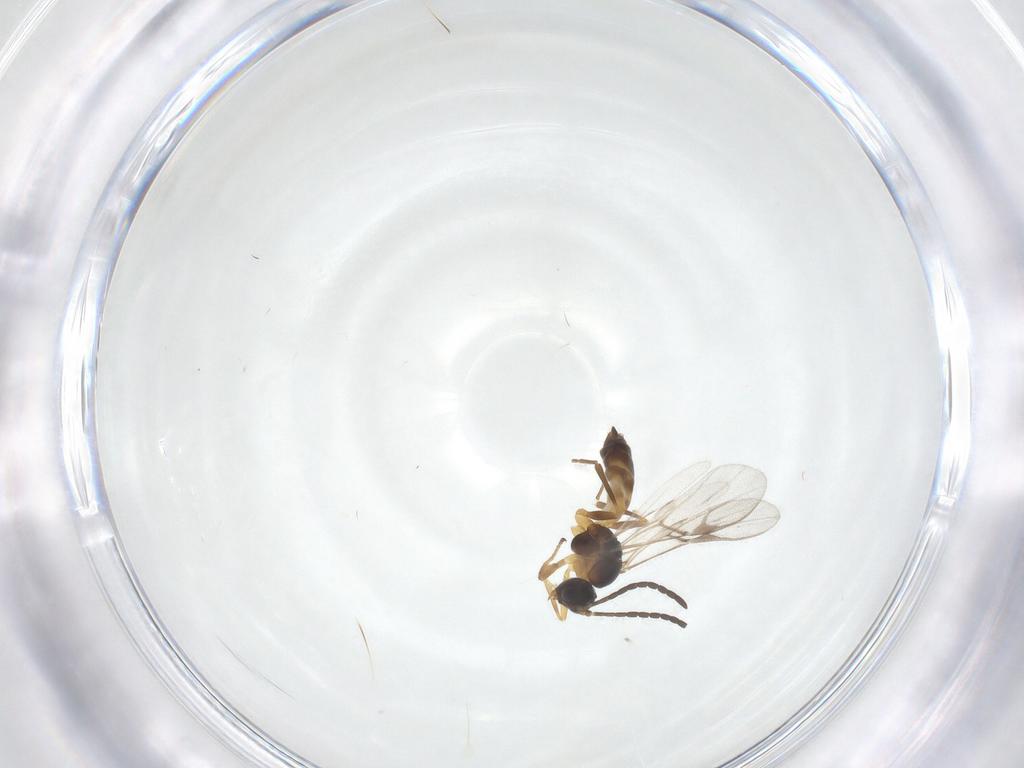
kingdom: Animalia
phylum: Arthropoda
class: Insecta
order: Hymenoptera
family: Braconidae
